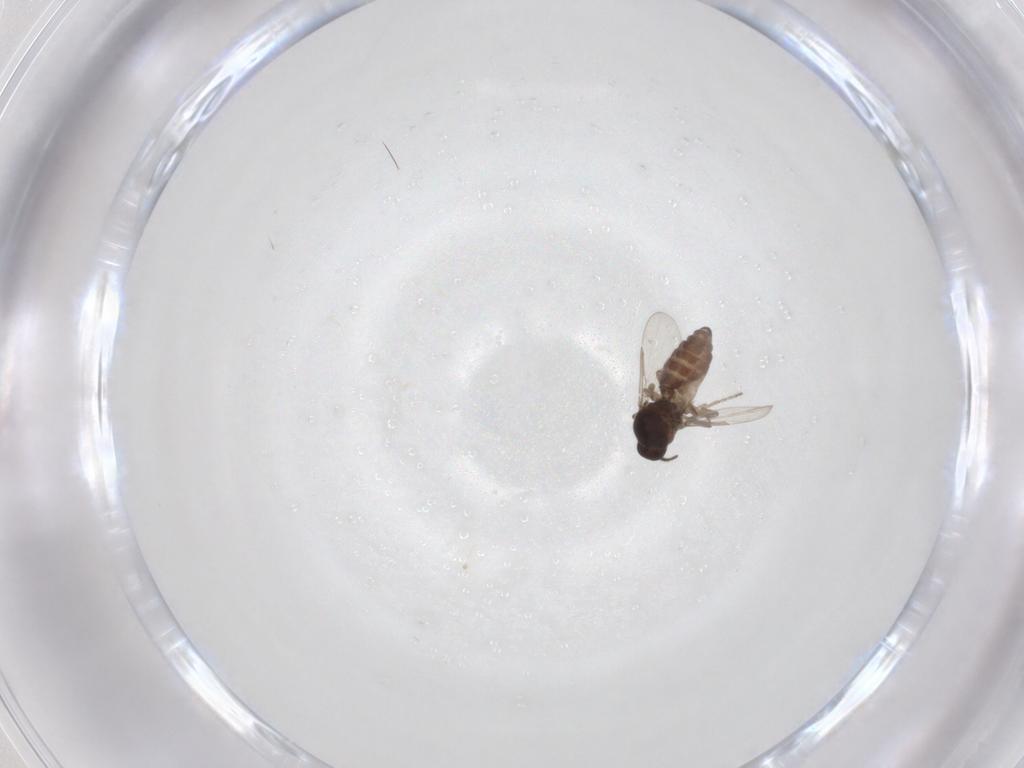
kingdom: Animalia
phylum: Arthropoda
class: Insecta
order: Diptera
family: Ceratopogonidae
